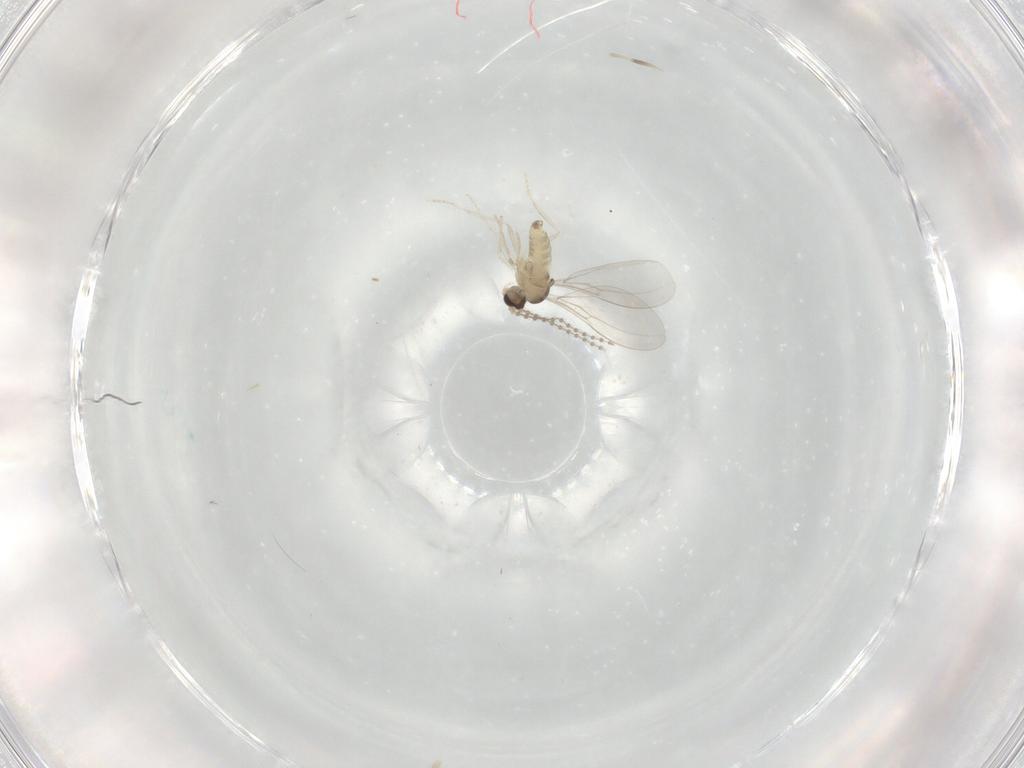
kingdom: Animalia
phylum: Arthropoda
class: Insecta
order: Diptera
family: Cecidomyiidae
